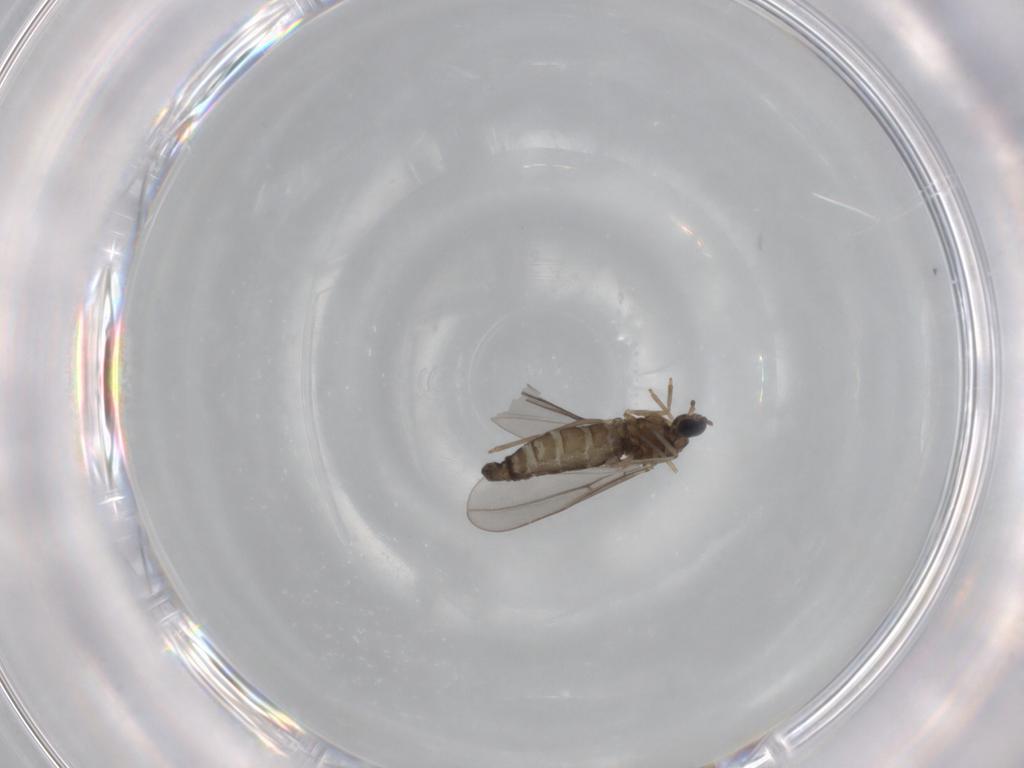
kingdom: Animalia
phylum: Arthropoda
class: Insecta
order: Diptera
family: Cecidomyiidae
